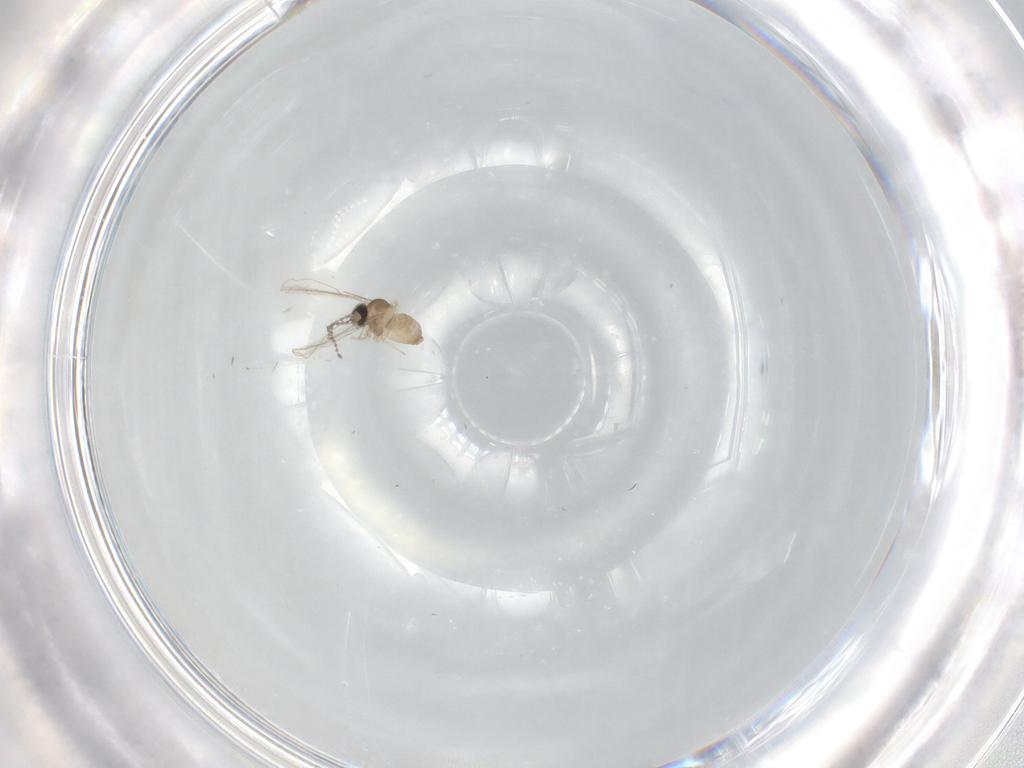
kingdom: Animalia
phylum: Arthropoda
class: Insecta
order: Diptera
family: Cecidomyiidae
